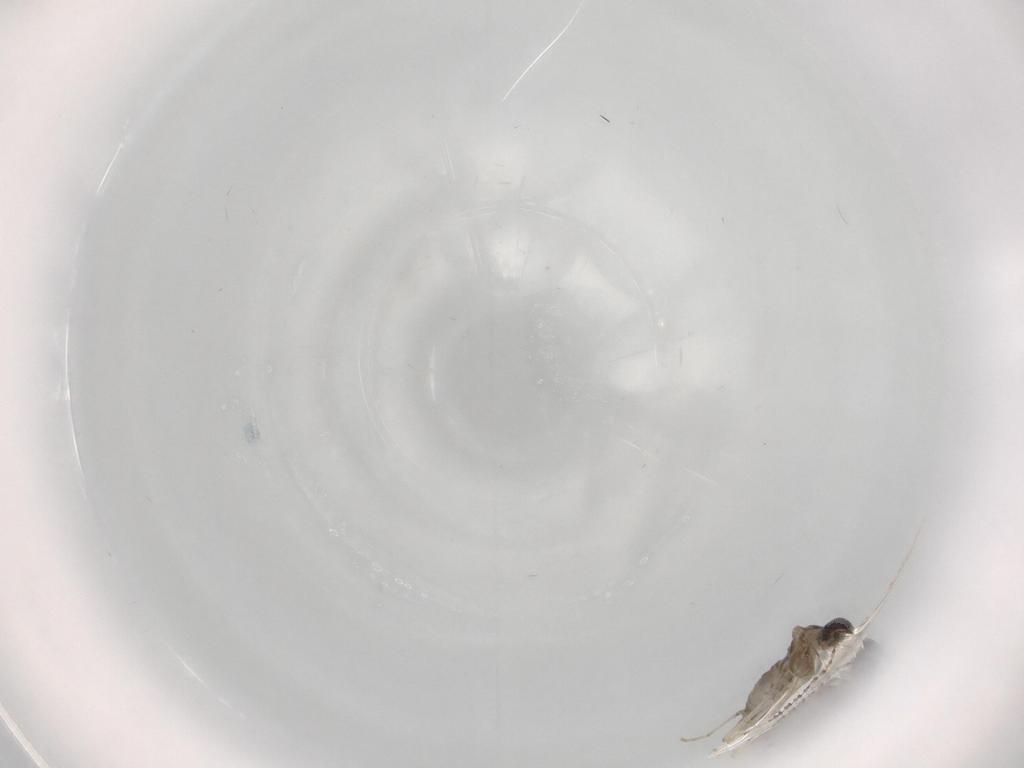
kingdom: Animalia
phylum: Arthropoda
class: Insecta
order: Diptera
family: Cecidomyiidae
